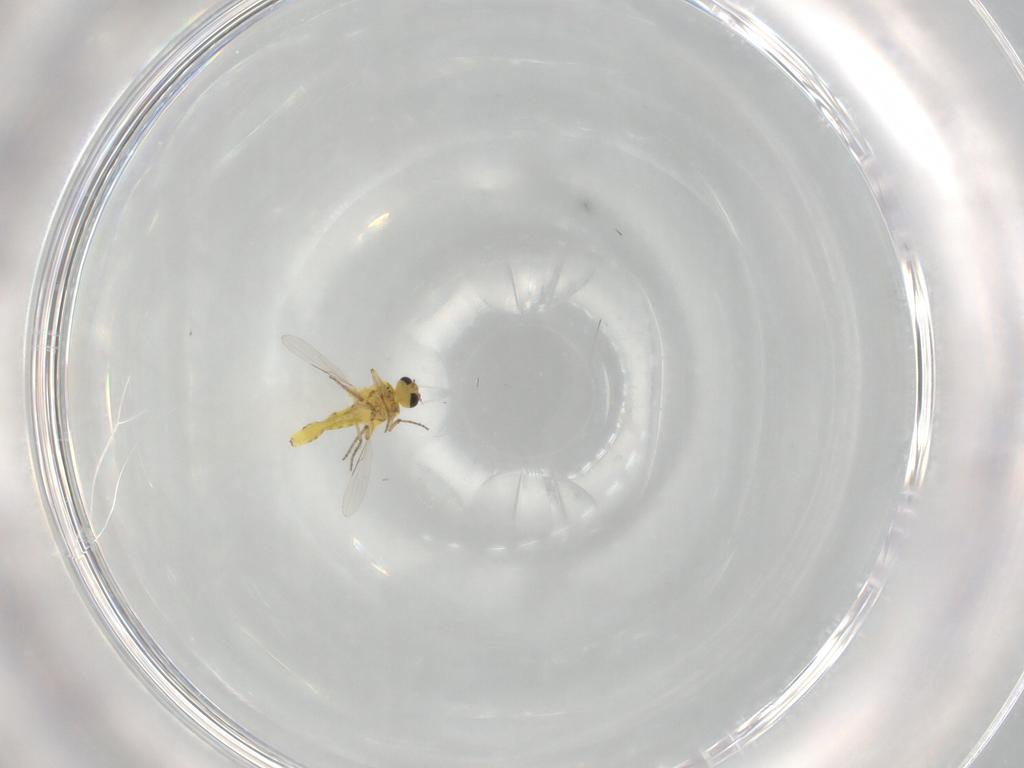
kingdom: Animalia
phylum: Arthropoda
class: Insecta
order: Diptera
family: Ceratopogonidae
